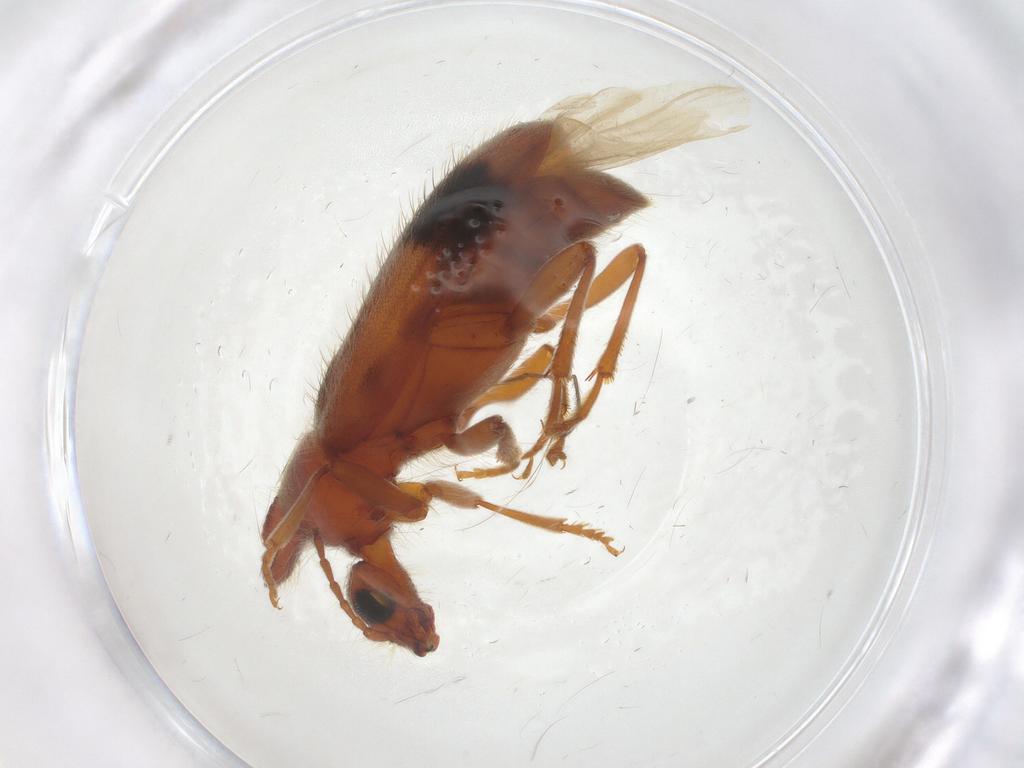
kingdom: Animalia
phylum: Arthropoda
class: Insecta
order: Coleoptera
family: Anthicidae
